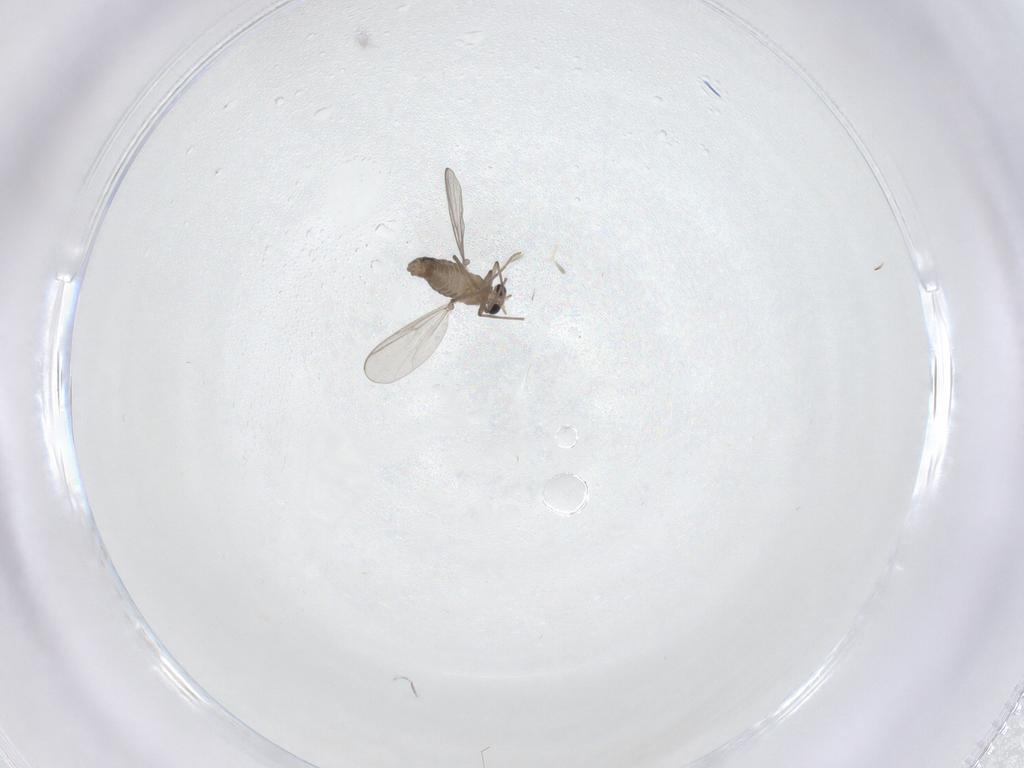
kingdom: Animalia
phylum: Arthropoda
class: Insecta
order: Diptera
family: Chironomidae
